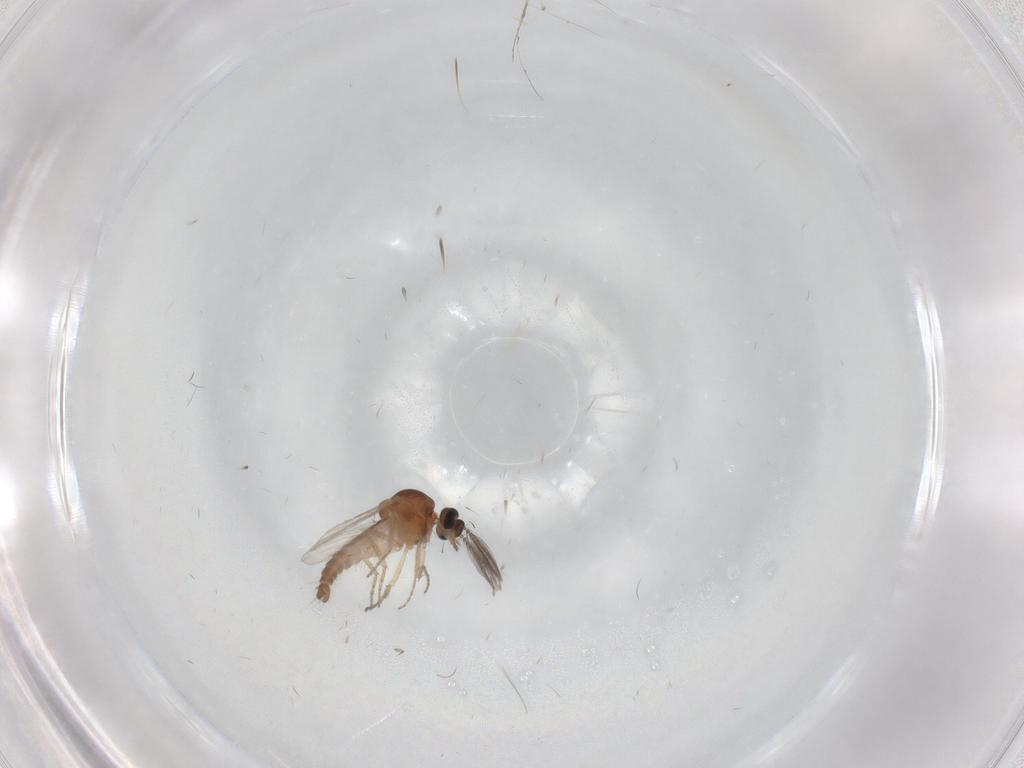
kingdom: Animalia
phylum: Arthropoda
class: Insecta
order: Diptera
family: Ceratopogonidae
